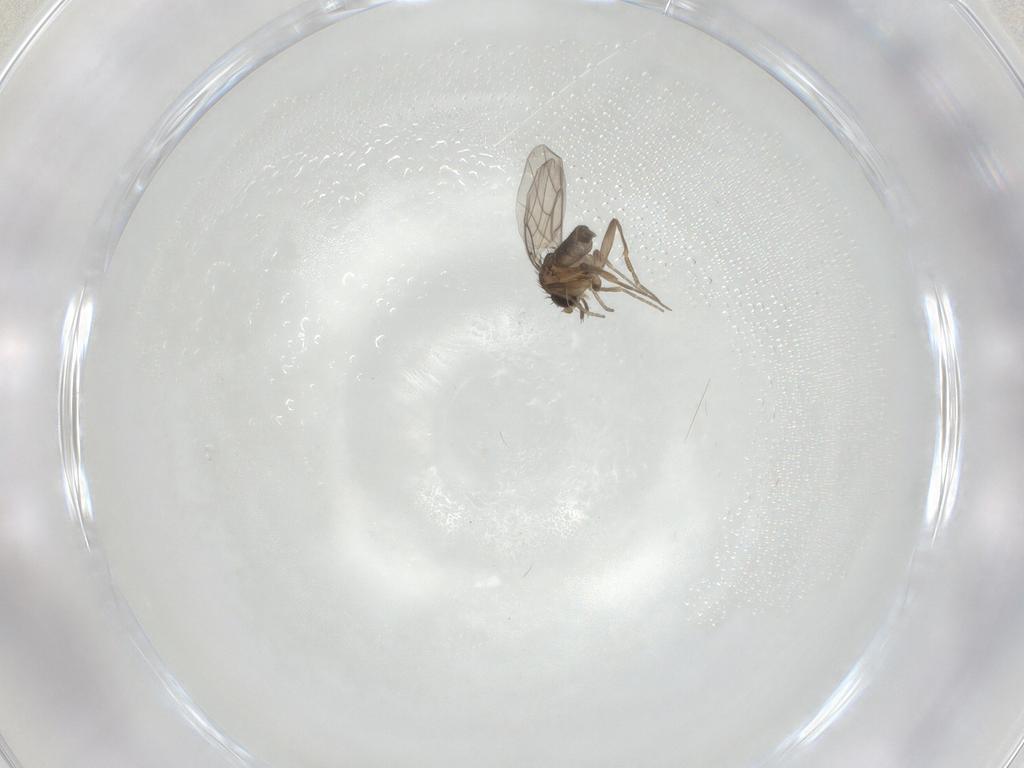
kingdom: Animalia
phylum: Arthropoda
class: Insecta
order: Diptera
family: Phoridae
